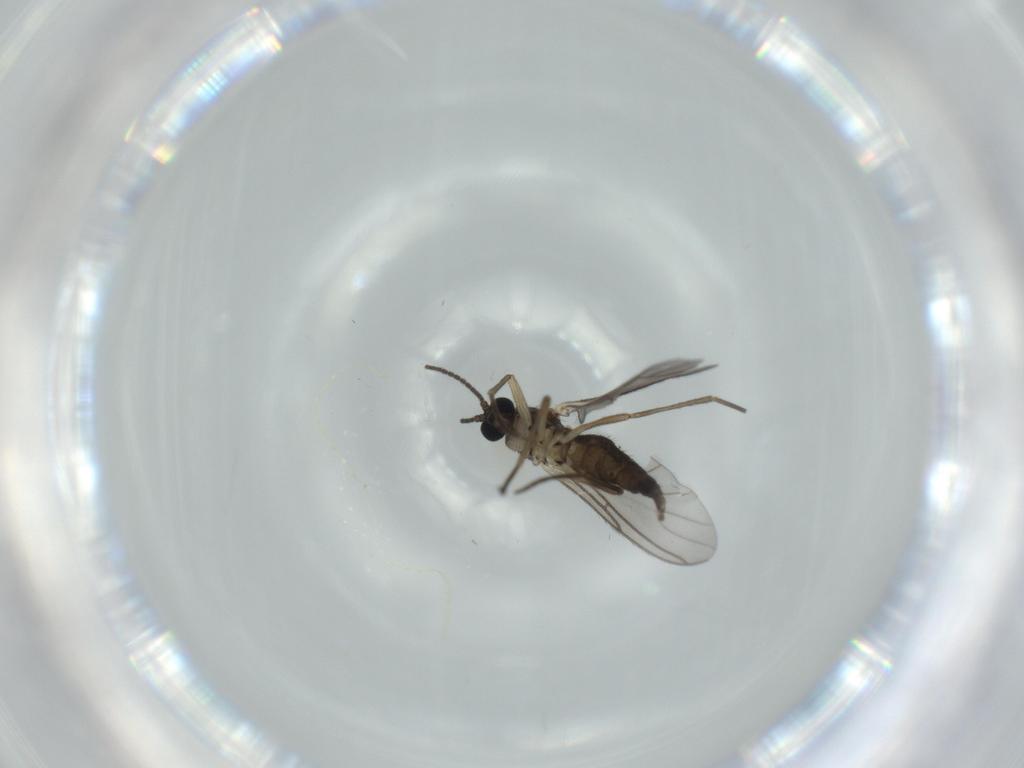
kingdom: Animalia
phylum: Arthropoda
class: Insecta
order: Diptera
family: Sciaridae
